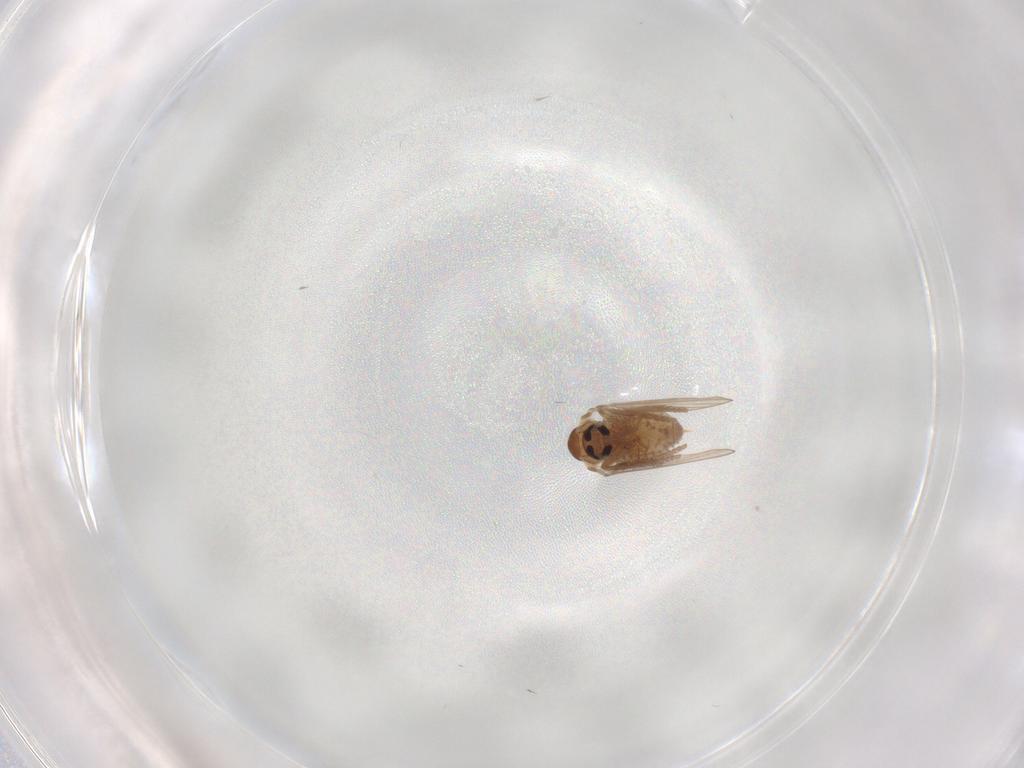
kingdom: Animalia
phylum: Arthropoda
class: Insecta
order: Diptera
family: Psychodidae
